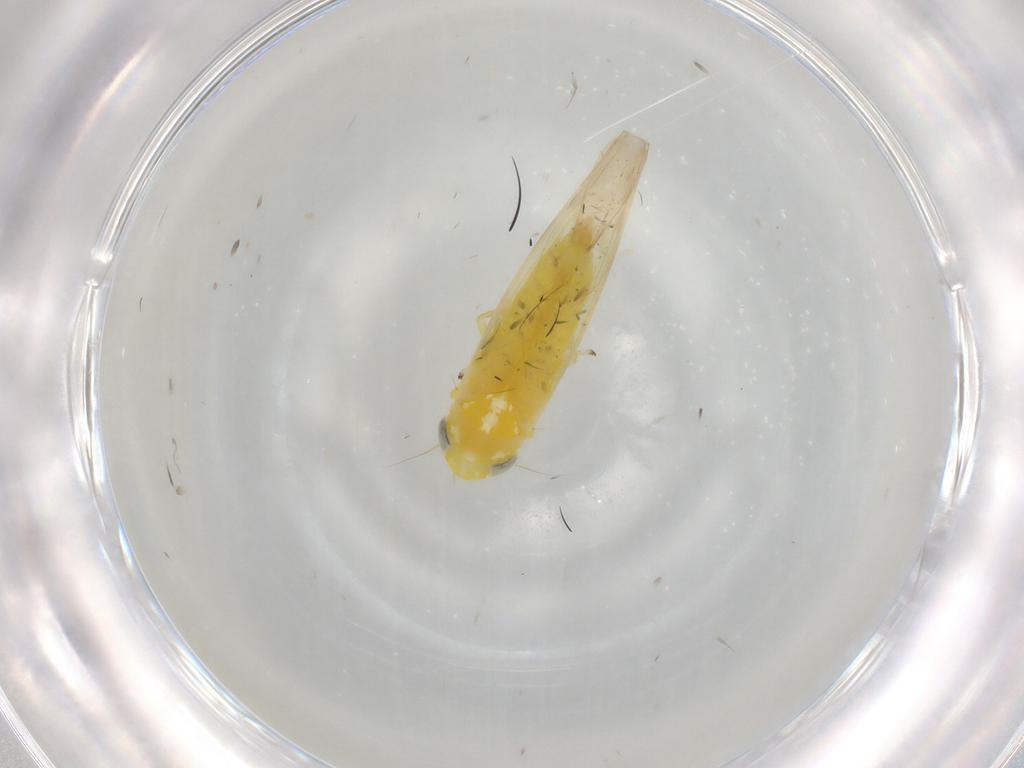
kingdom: Animalia
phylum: Arthropoda
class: Insecta
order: Hemiptera
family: Cicadellidae
